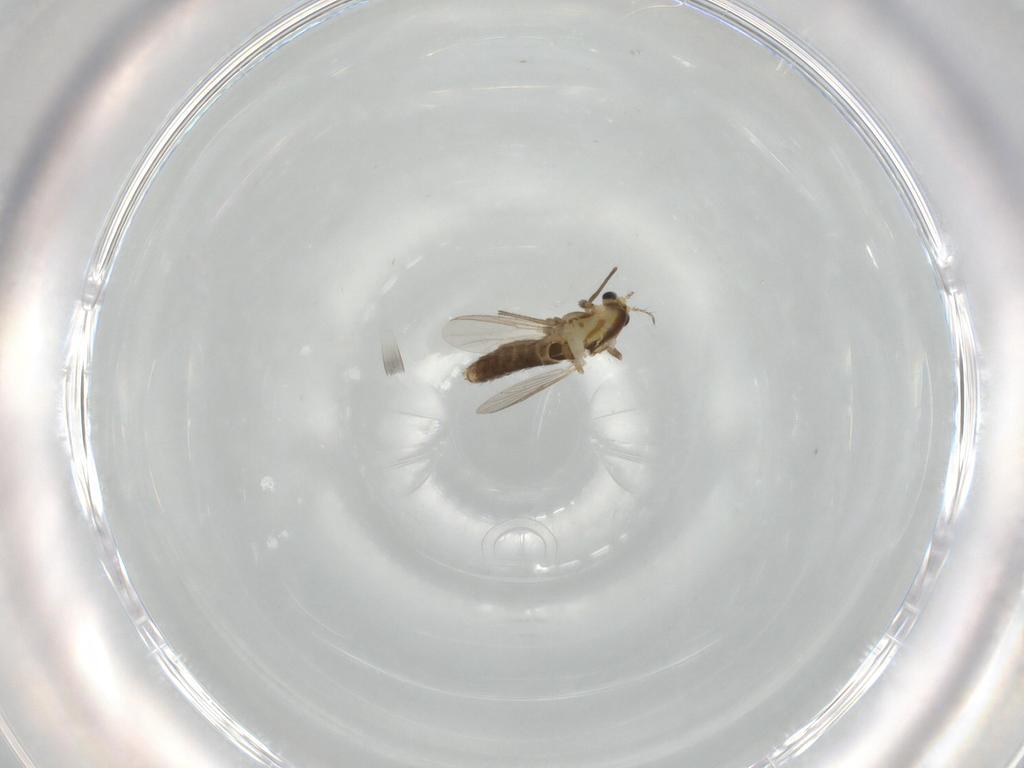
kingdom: Animalia
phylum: Arthropoda
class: Insecta
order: Diptera
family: Chironomidae
